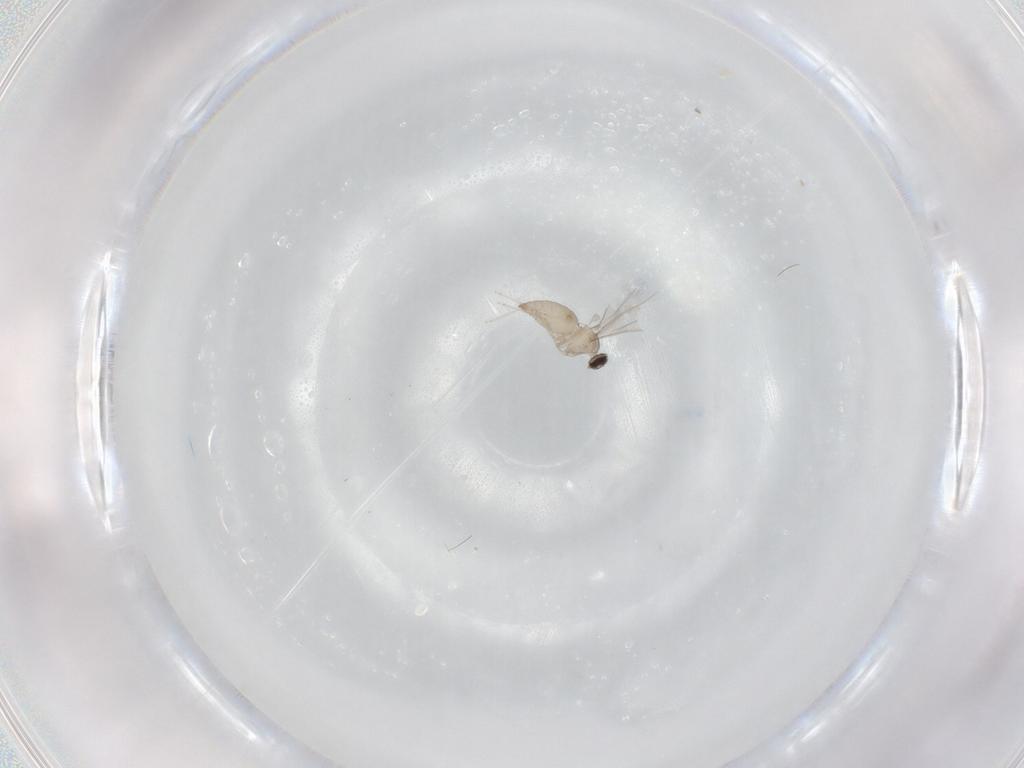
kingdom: Animalia
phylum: Arthropoda
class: Insecta
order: Diptera
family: Cecidomyiidae
